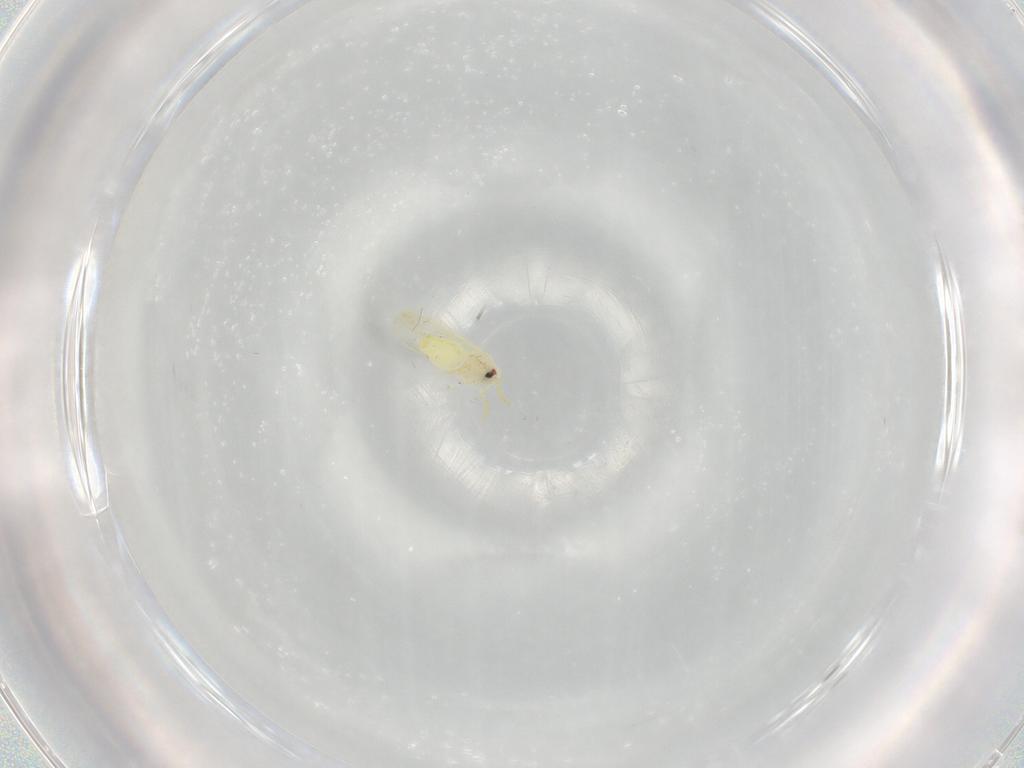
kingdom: Animalia
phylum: Arthropoda
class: Insecta
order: Hemiptera
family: Aleyrodidae
